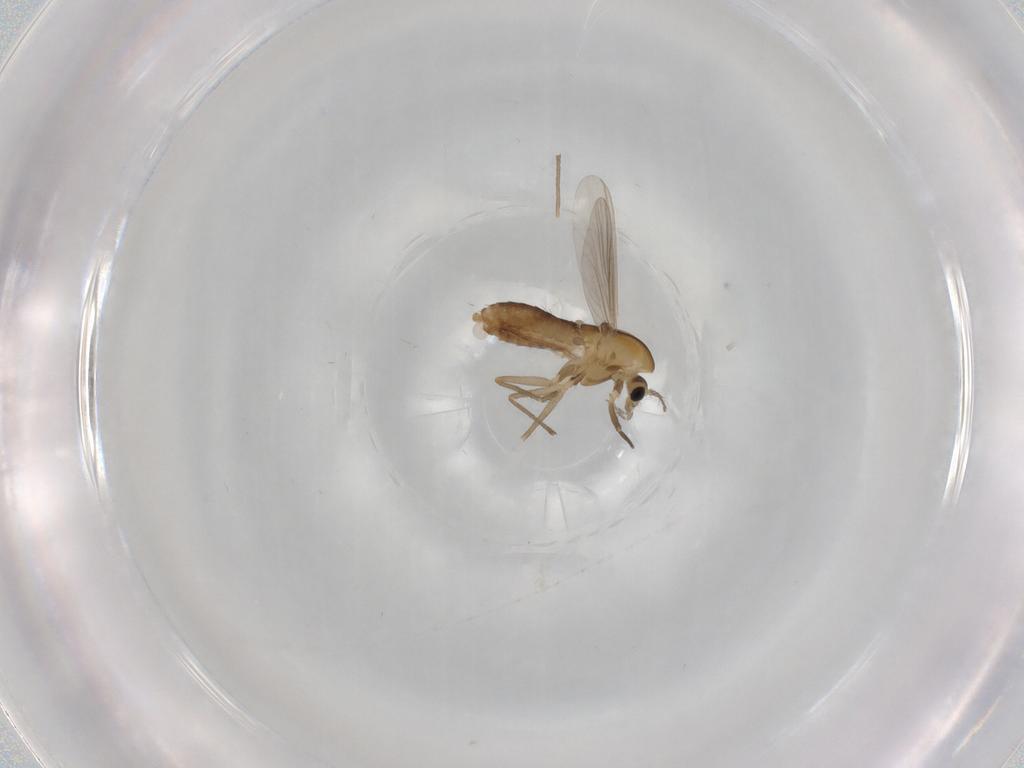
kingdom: Animalia
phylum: Arthropoda
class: Insecta
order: Diptera
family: Chironomidae
